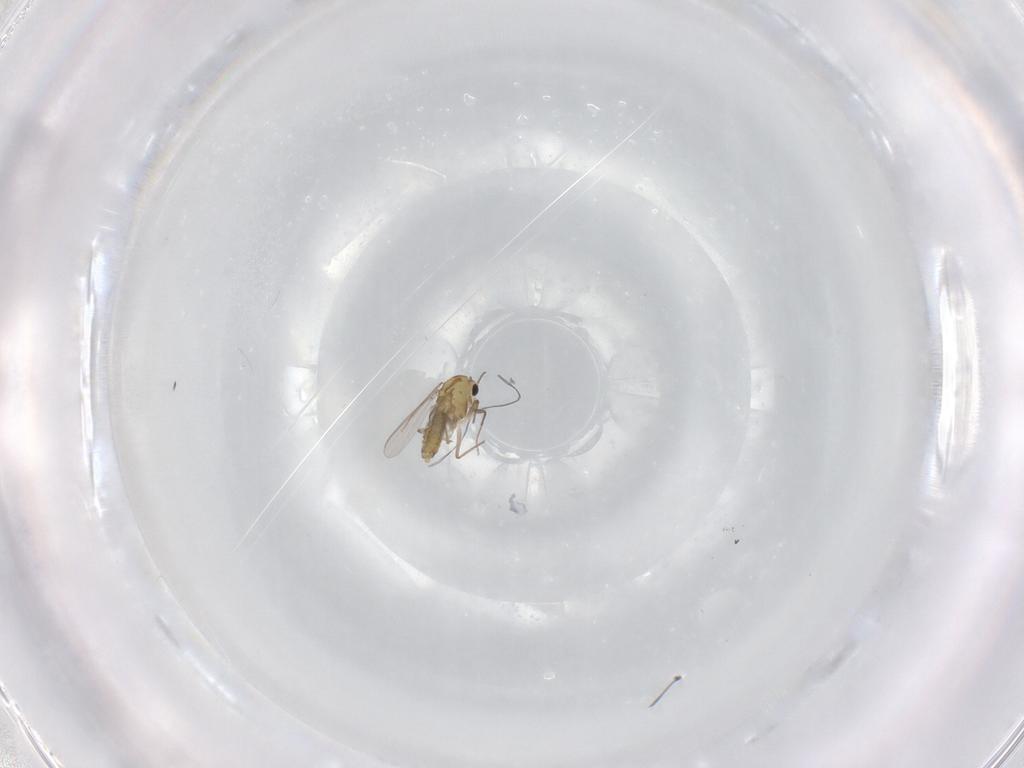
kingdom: Animalia
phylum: Arthropoda
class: Insecta
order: Diptera
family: Chironomidae
